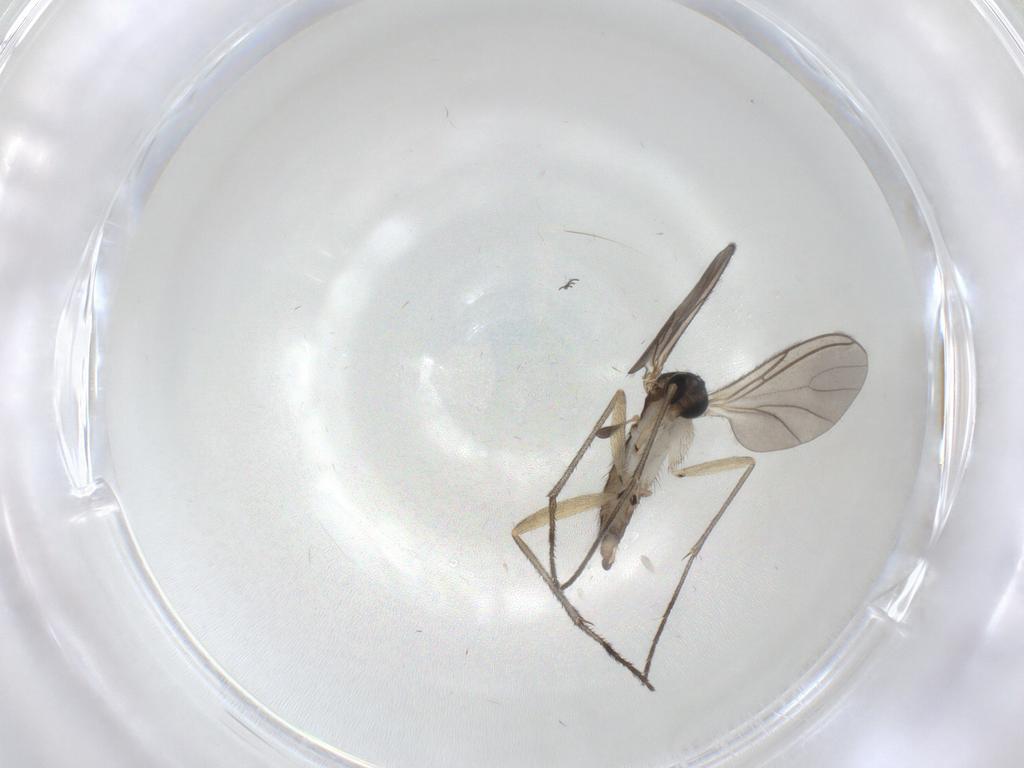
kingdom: Animalia
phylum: Arthropoda
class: Insecta
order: Diptera
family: Sciaridae
